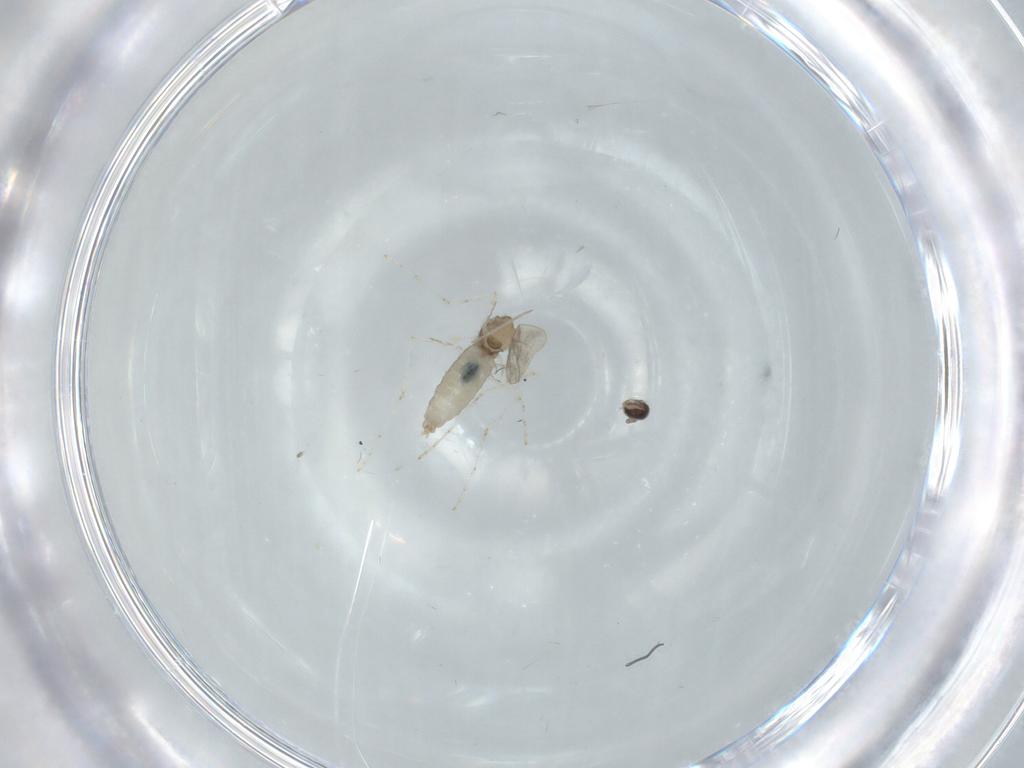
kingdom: Animalia
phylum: Arthropoda
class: Insecta
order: Diptera
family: Cecidomyiidae
